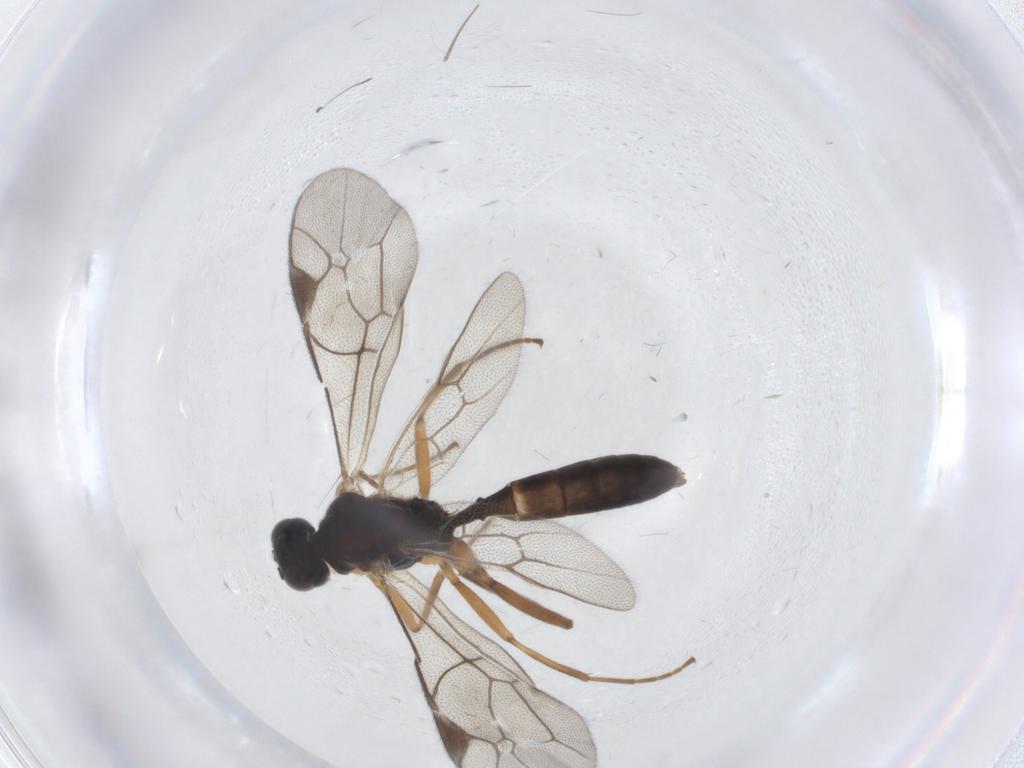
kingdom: Animalia
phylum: Arthropoda
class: Insecta
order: Hymenoptera
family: Ichneumonidae
